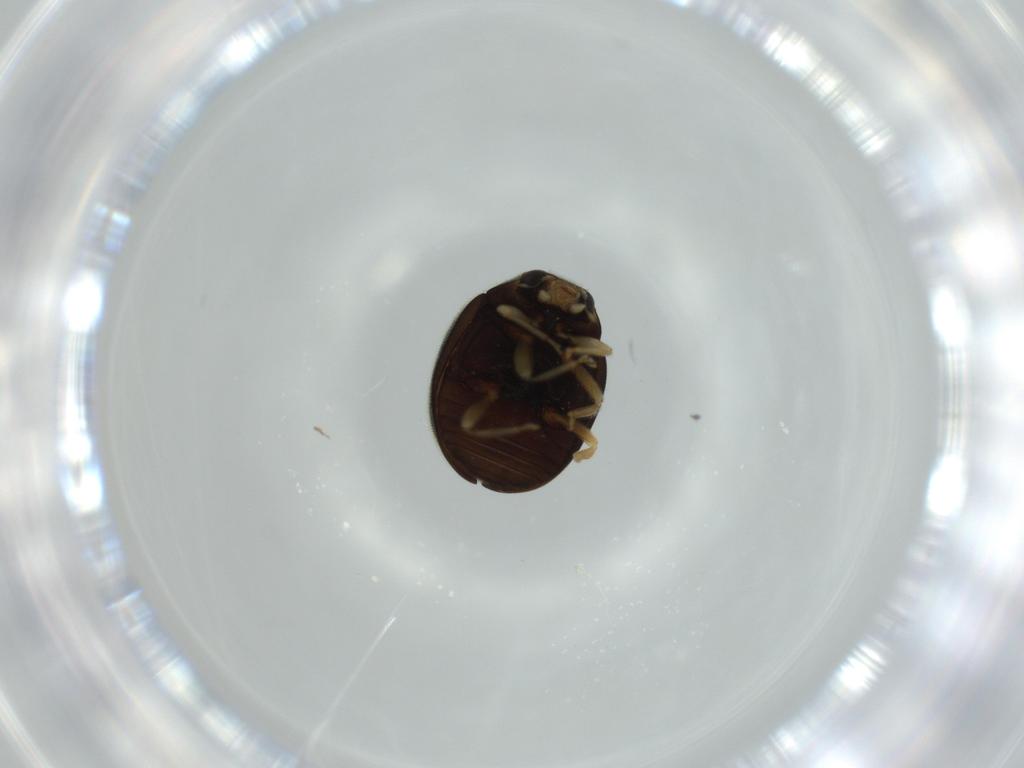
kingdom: Animalia
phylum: Arthropoda
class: Insecta
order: Coleoptera
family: Coccinellidae
